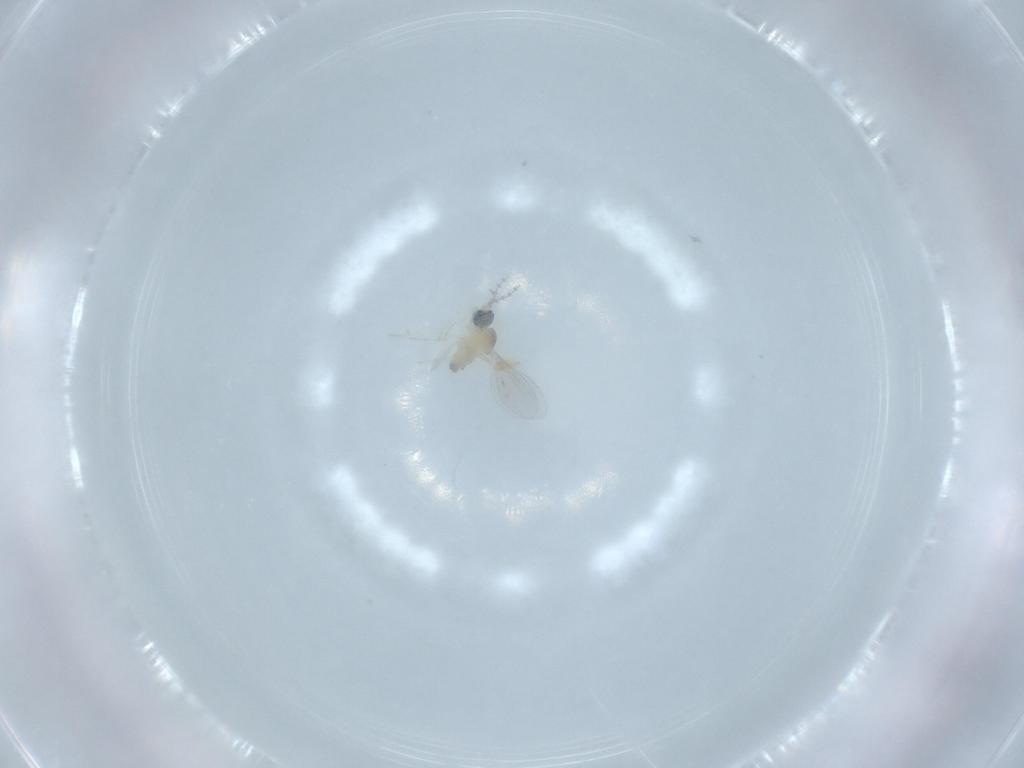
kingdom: Animalia
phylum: Arthropoda
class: Insecta
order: Diptera
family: Cecidomyiidae
